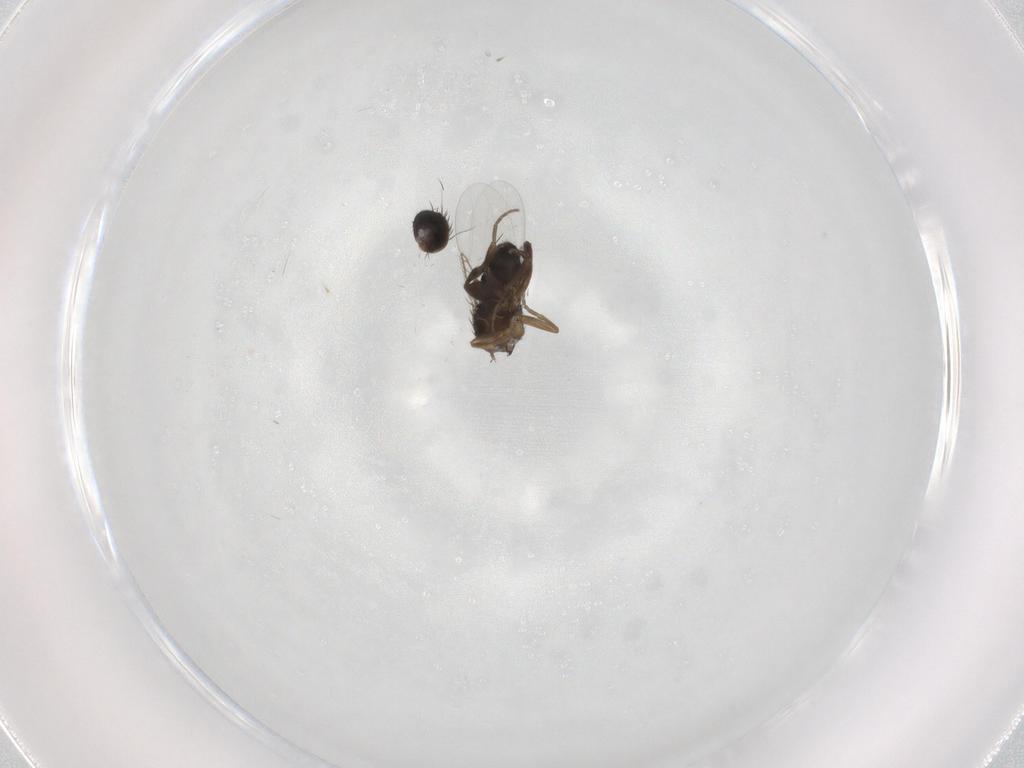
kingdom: Animalia
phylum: Arthropoda
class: Insecta
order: Diptera
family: Phoridae
